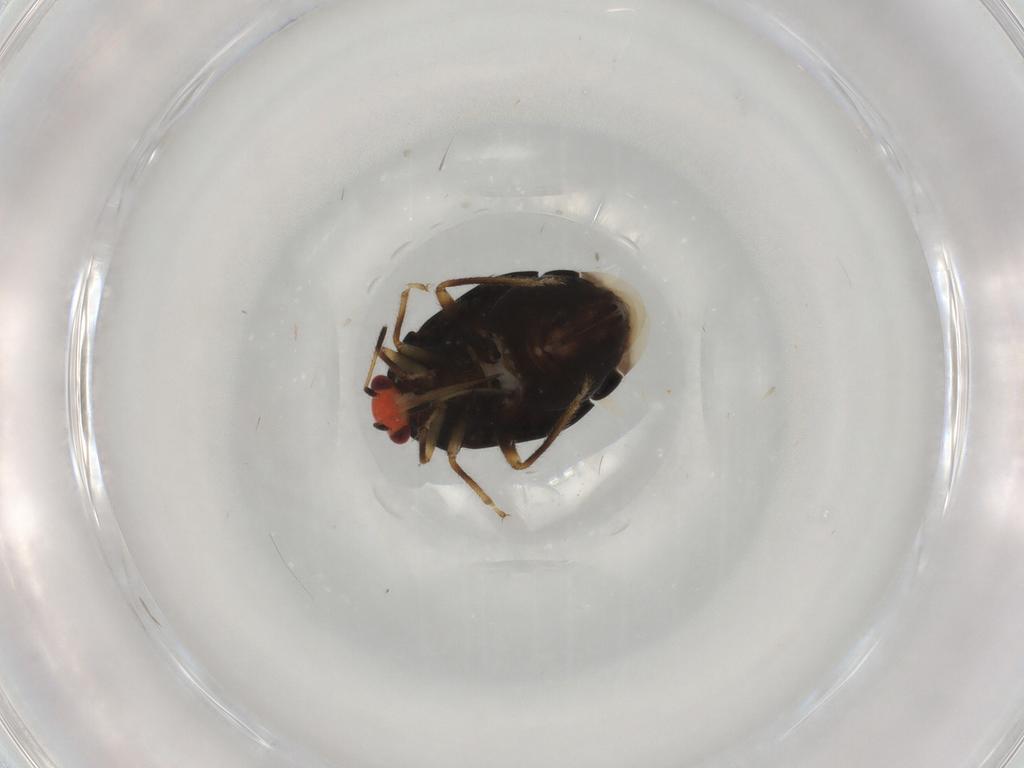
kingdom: Animalia
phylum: Arthropoda
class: Insecta
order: Hemiptera
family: Miridae
